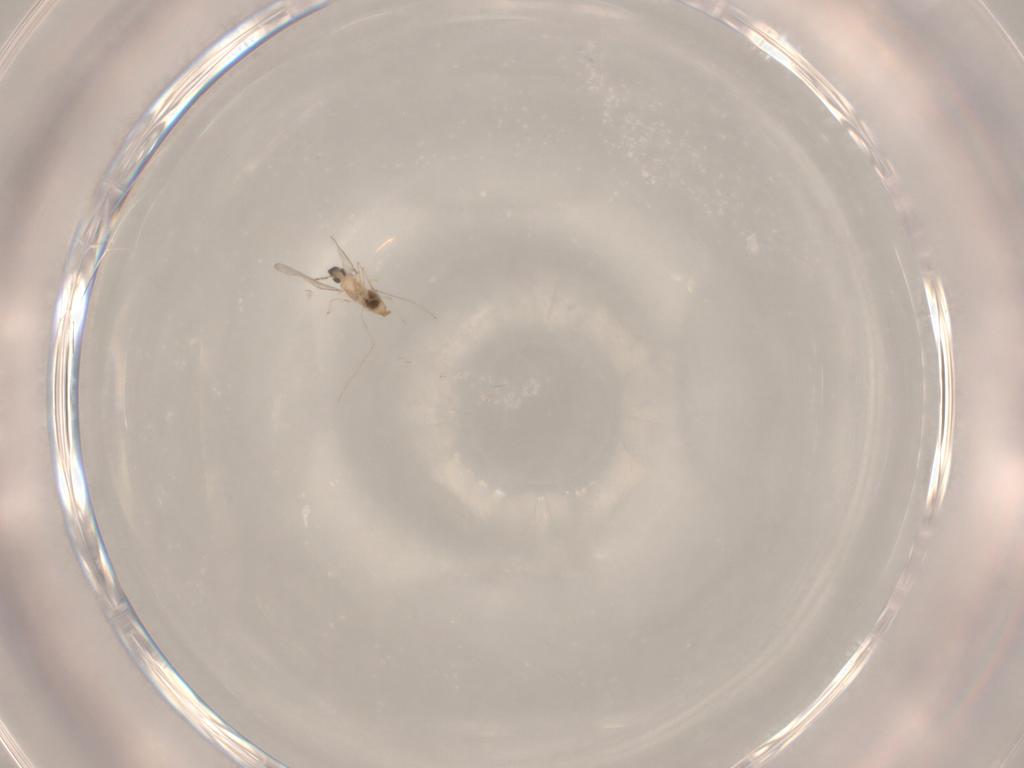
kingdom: Animalia
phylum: Arthropoda
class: Insecta
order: Diptera
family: Cecidomyiidae
